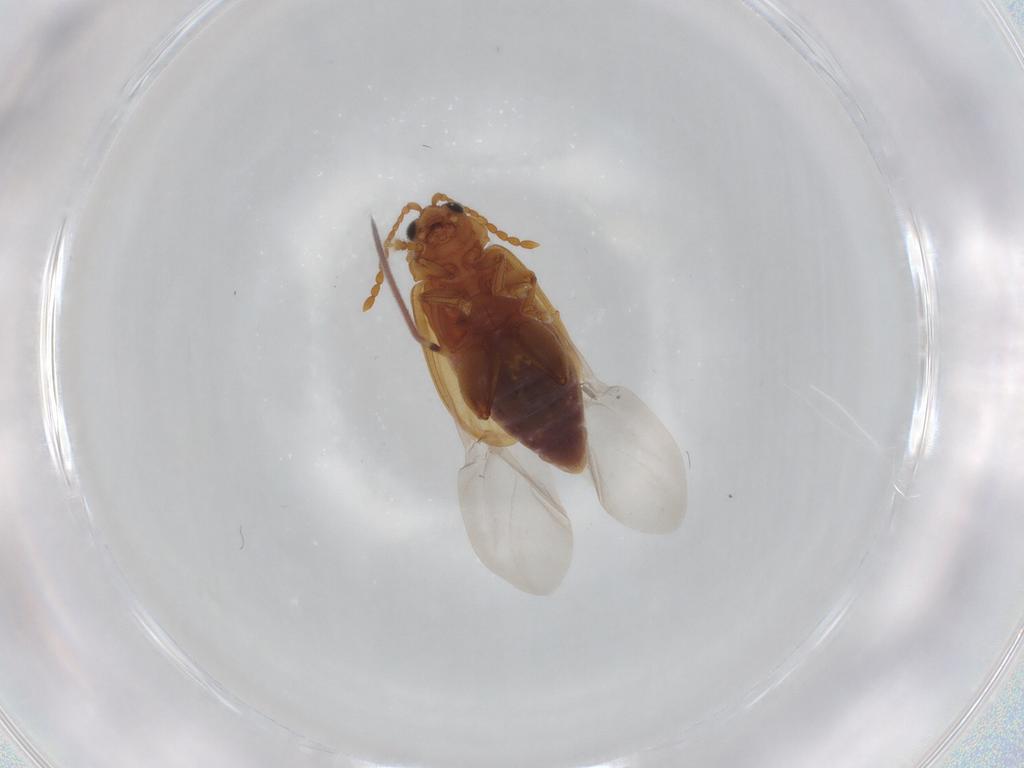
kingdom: Animalia
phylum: Arthropoda
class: Insecta
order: Coleoptera
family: Chrysomelidae
